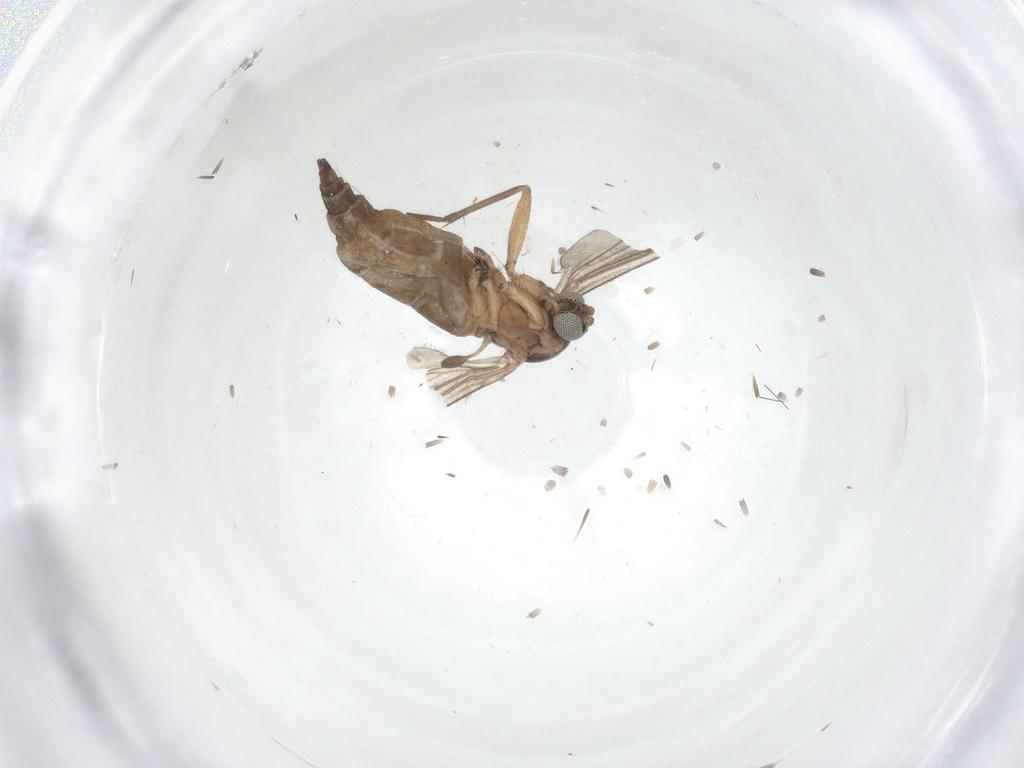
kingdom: Animalia
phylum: Arthropoda
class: Insecta
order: Diptera
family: Sciaridae
